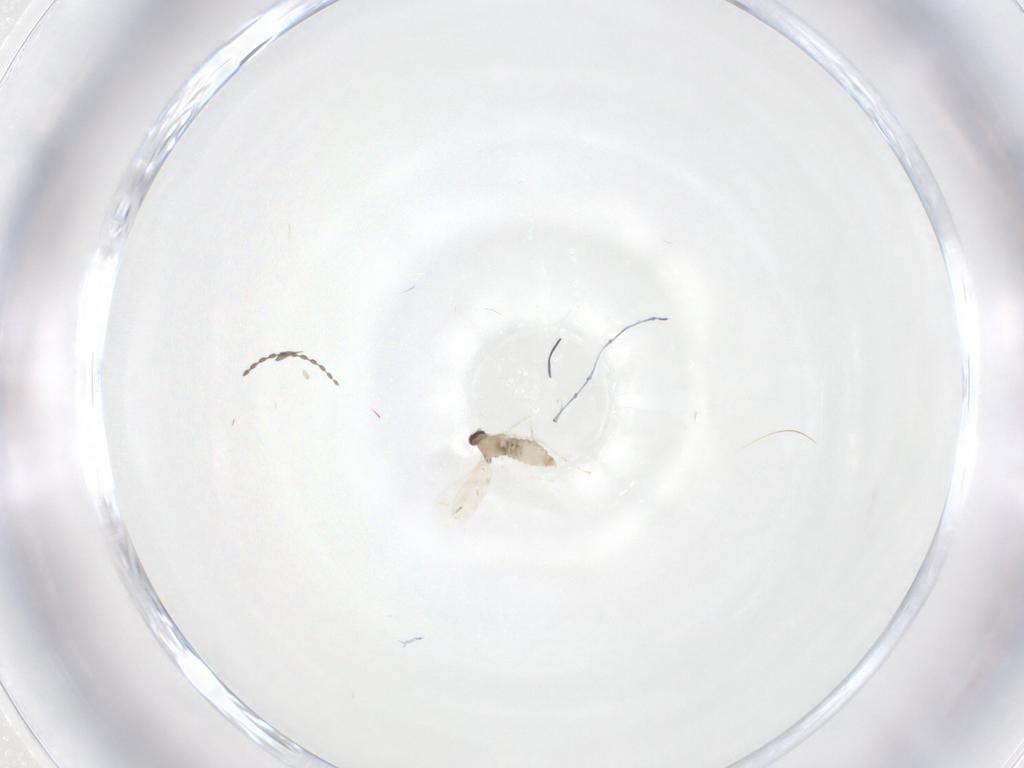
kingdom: Animalia
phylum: Arthropoda
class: Insecta
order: Diptera
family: Cecidomyiidae
